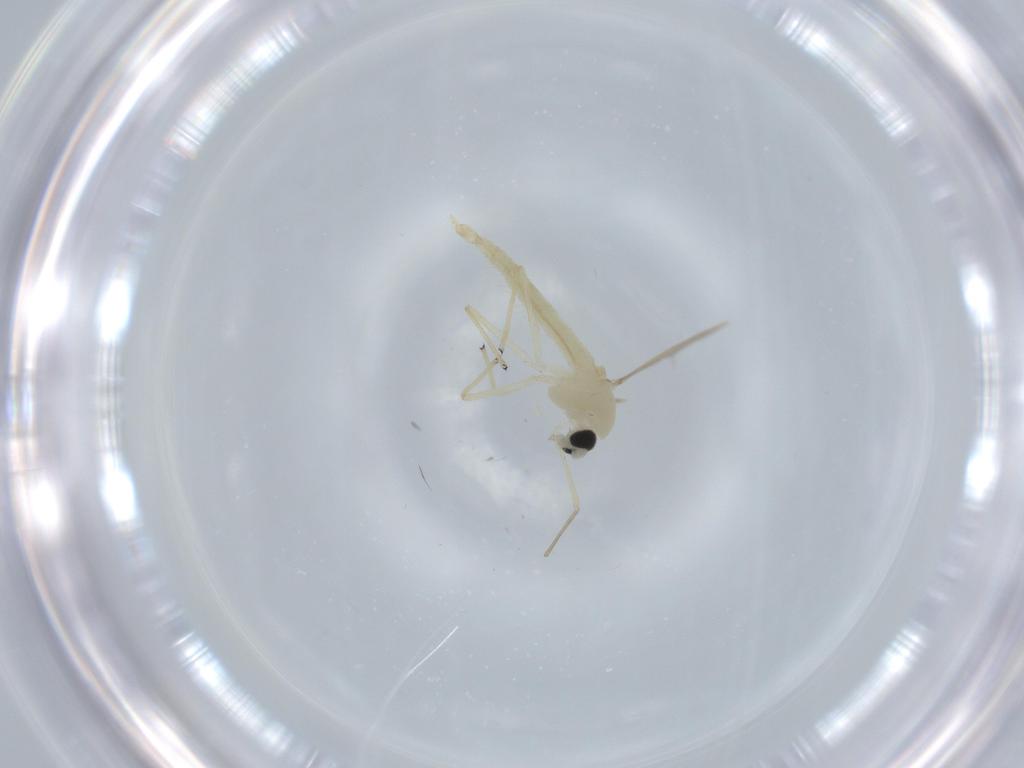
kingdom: Animalia
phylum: Arthropoda
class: Insecta
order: Diptera
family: Chironomidae
